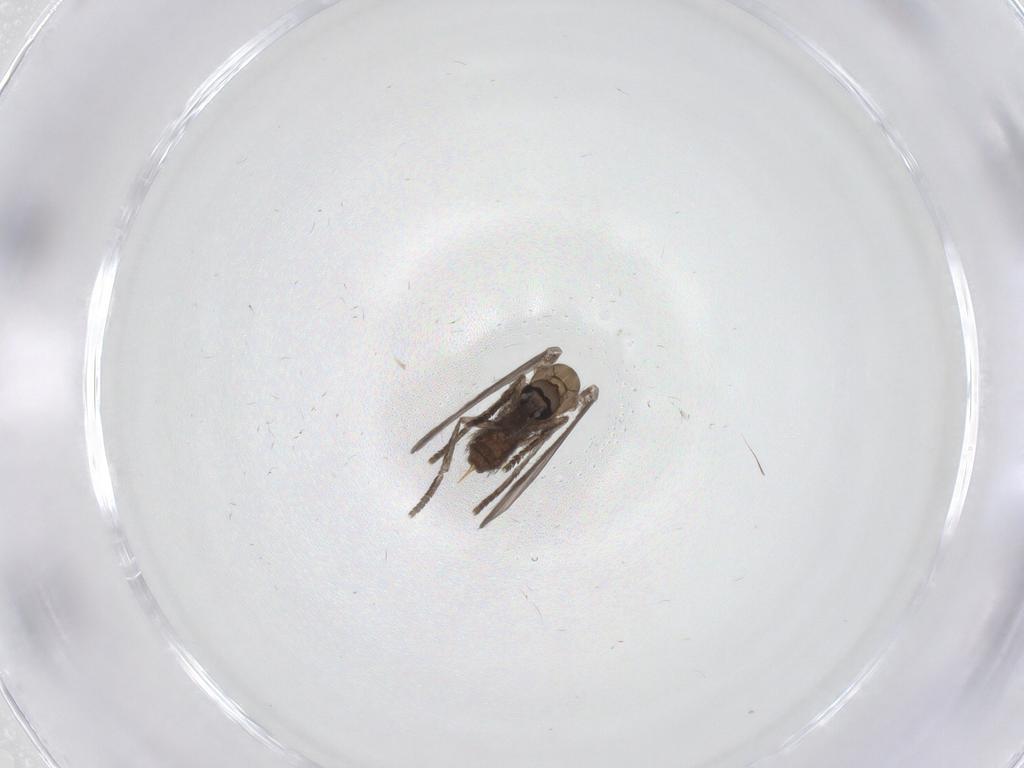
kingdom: Animalia
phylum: Arthropoda
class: Insecta
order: Diptera
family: Psychodidae
